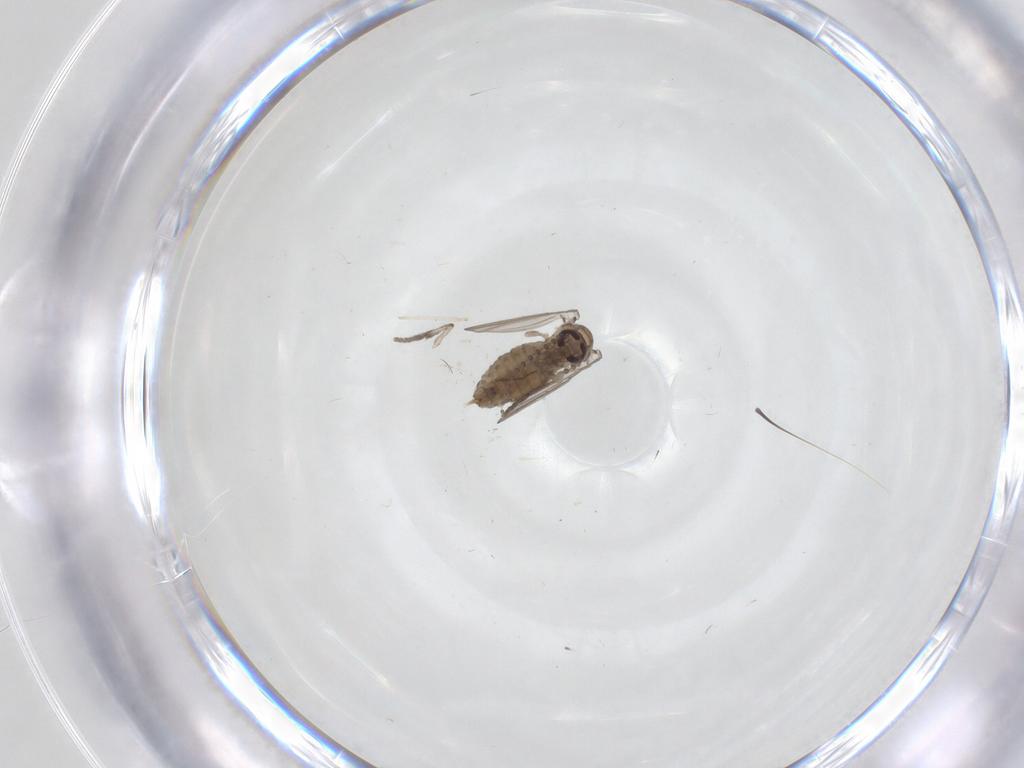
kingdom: Animalia
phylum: Arthropoda
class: Insecta
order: Diptera
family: Psychodidae
